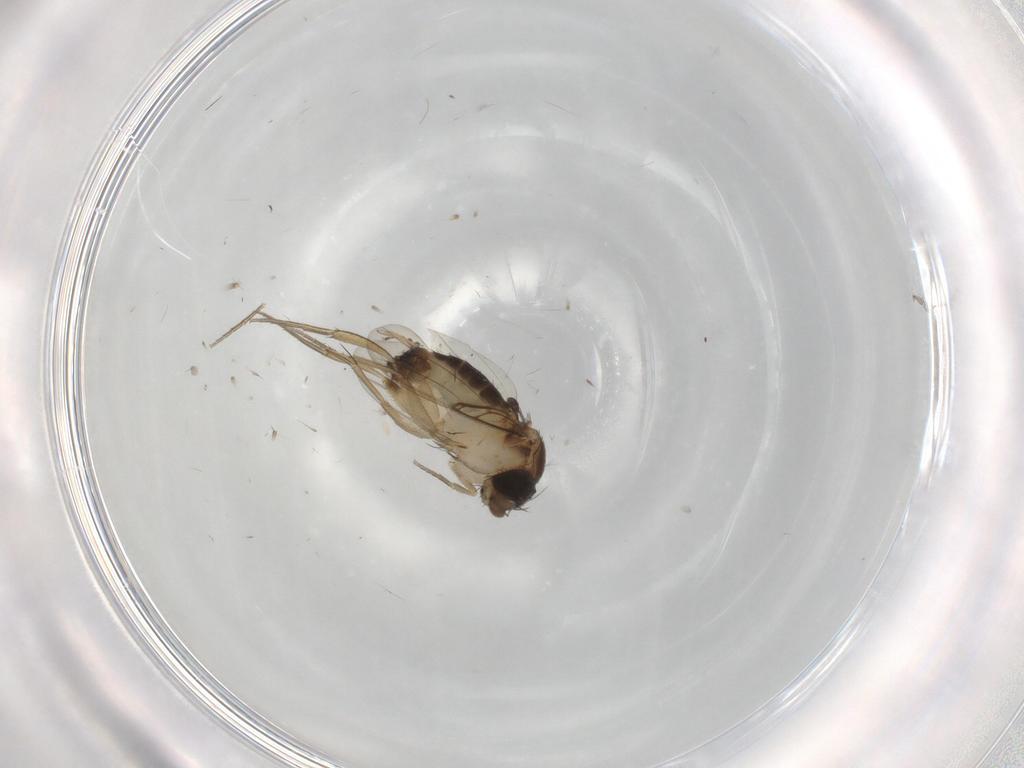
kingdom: Animalia
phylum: Arthropoda
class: Insecta
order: Diptera
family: Phoridae
